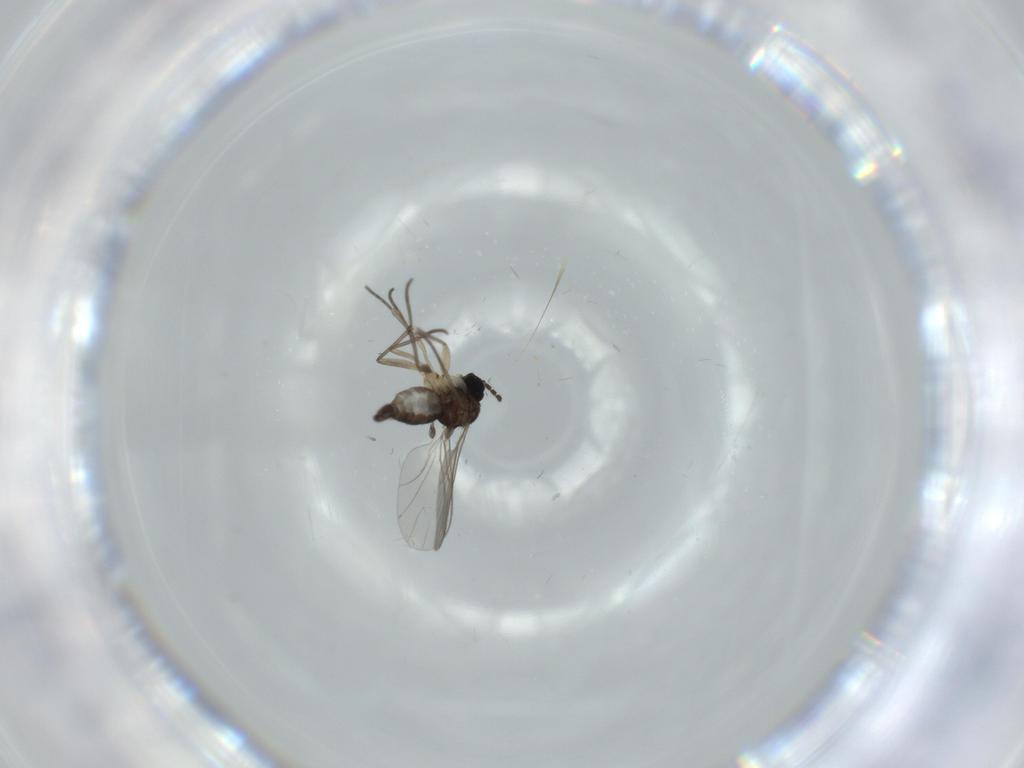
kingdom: Animalia
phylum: Arthropoda
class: Insecta
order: Diptera
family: Sciaridae
